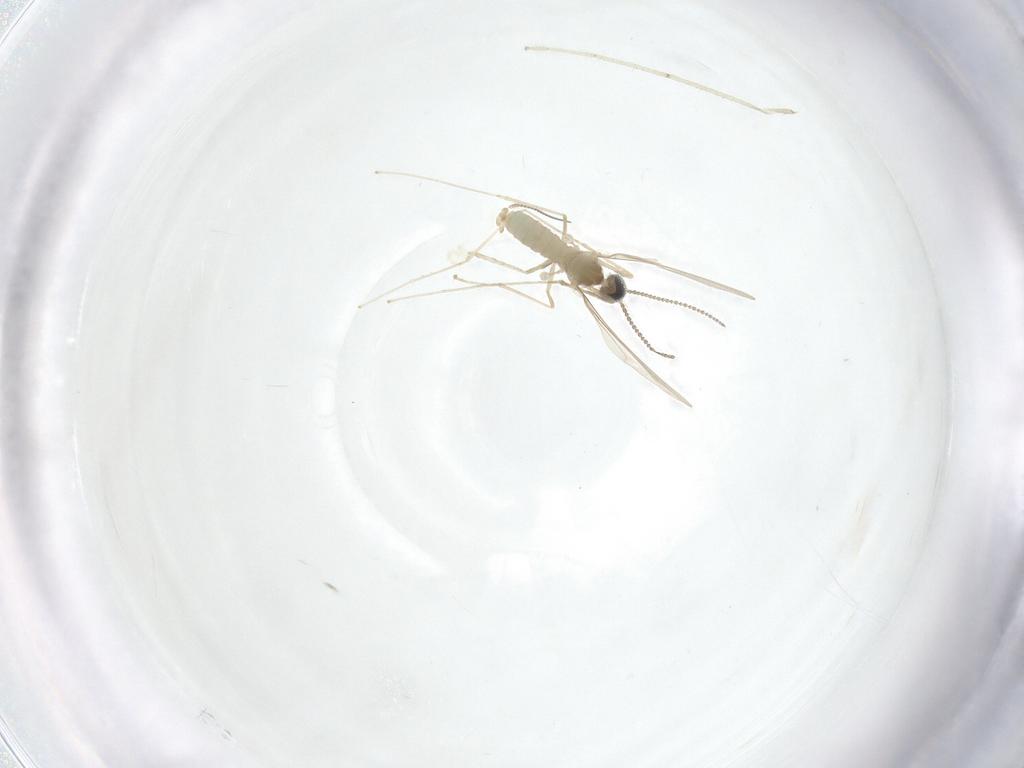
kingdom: Animalia
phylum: Arthropoda
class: Insecta
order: Diptera
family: Cecidomyiidae
